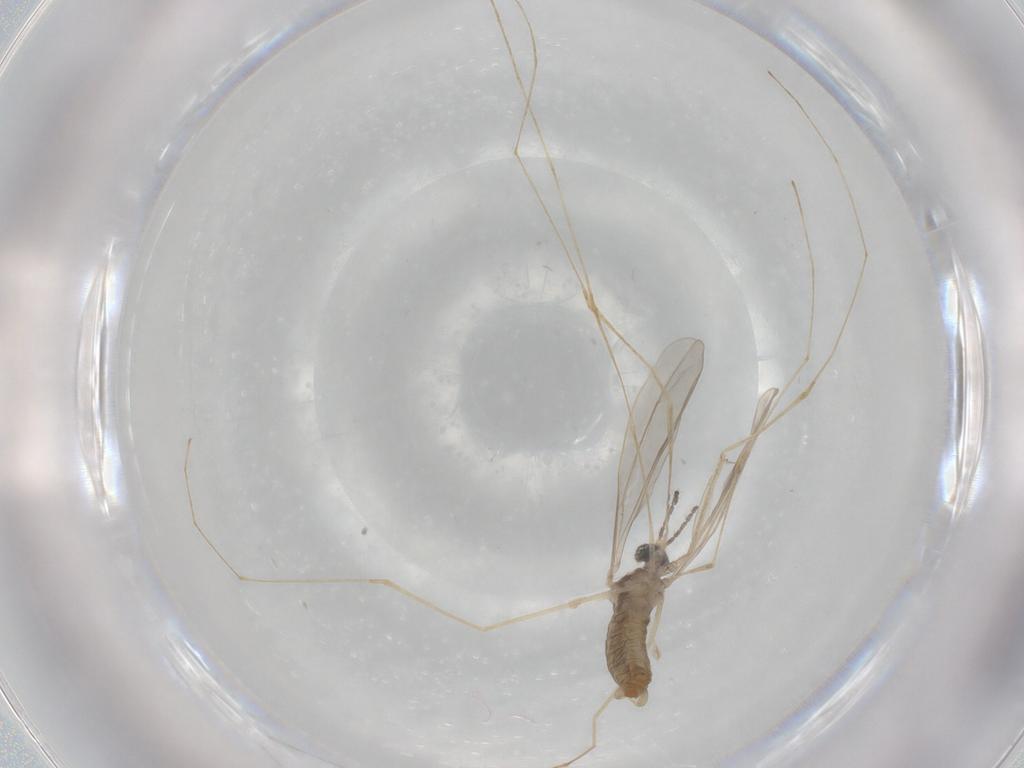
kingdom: Animalia
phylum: Arthropoda
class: Insecta
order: Diptera
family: Cecidomyiidae
